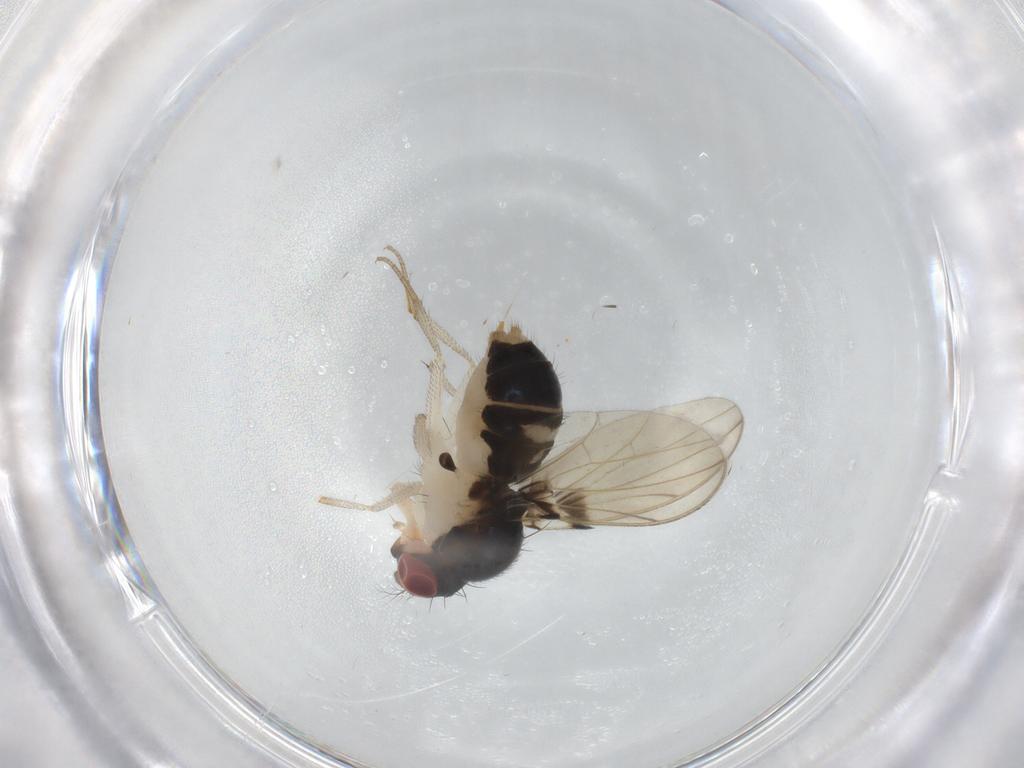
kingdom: Animalia
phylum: Arthropoda
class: Insecta
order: Diptera
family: Drosophilidae
